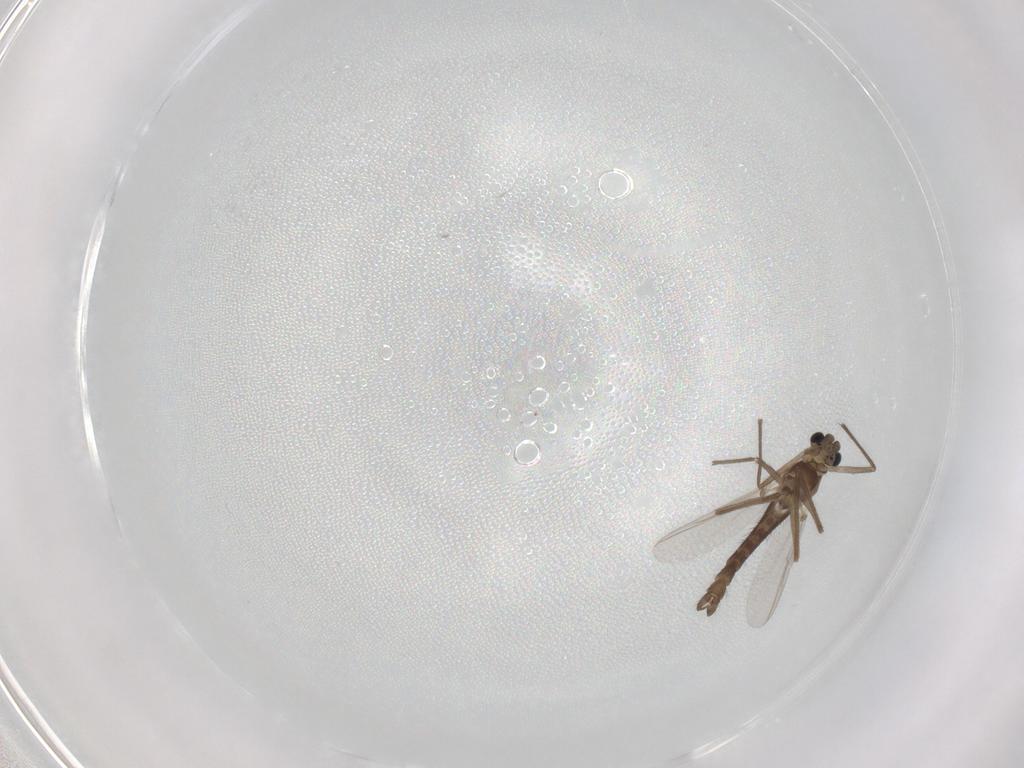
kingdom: Animalia
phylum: Arthropoda
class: Insecta
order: Diptera
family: Chironomidae
